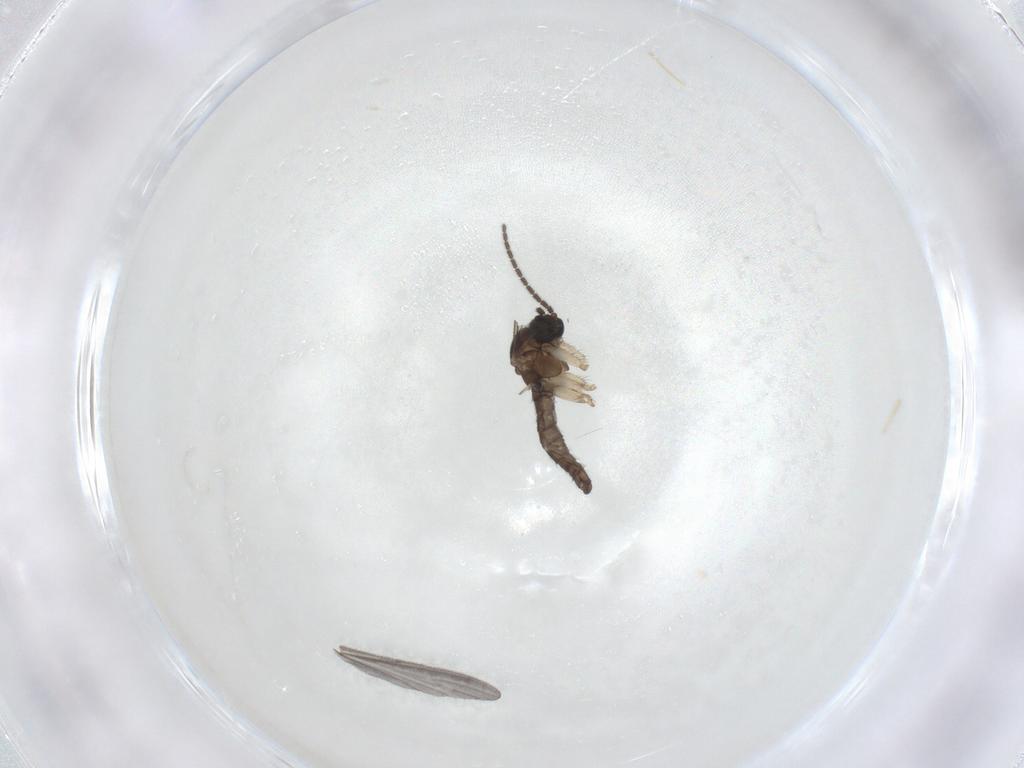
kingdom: Animalia
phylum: Arthropoda
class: Insecta
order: Diptera
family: Sciaridae
